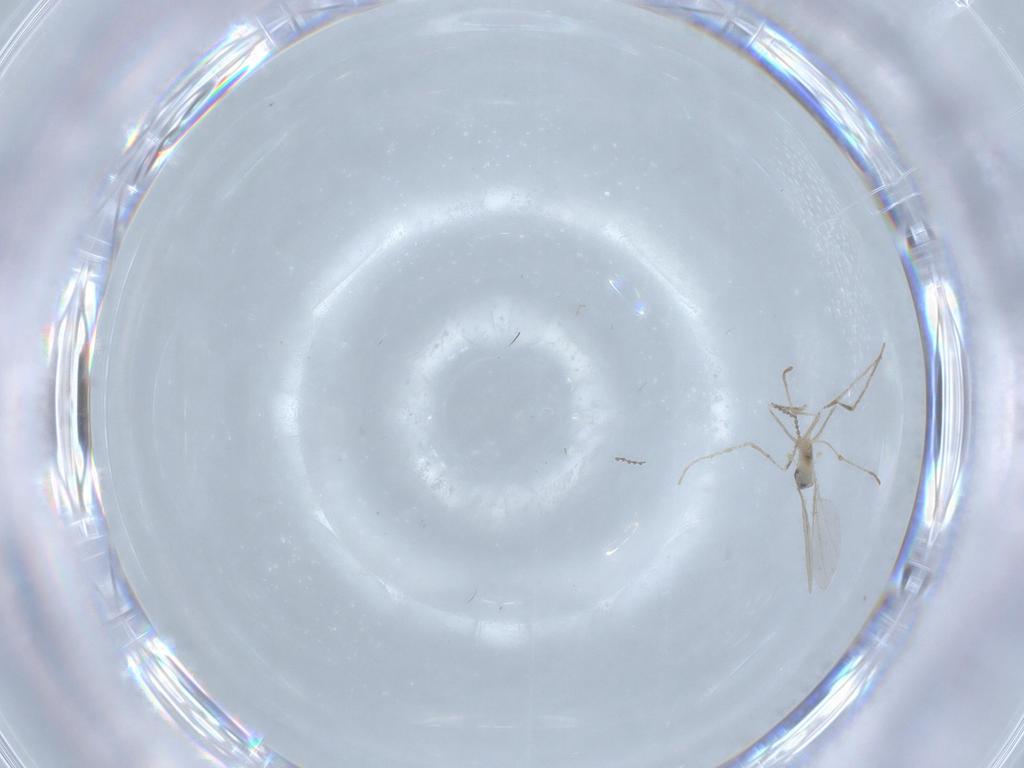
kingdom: Animalia
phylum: Arthropoda
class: Insecta
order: Diptera
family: Cecidomyiidae
